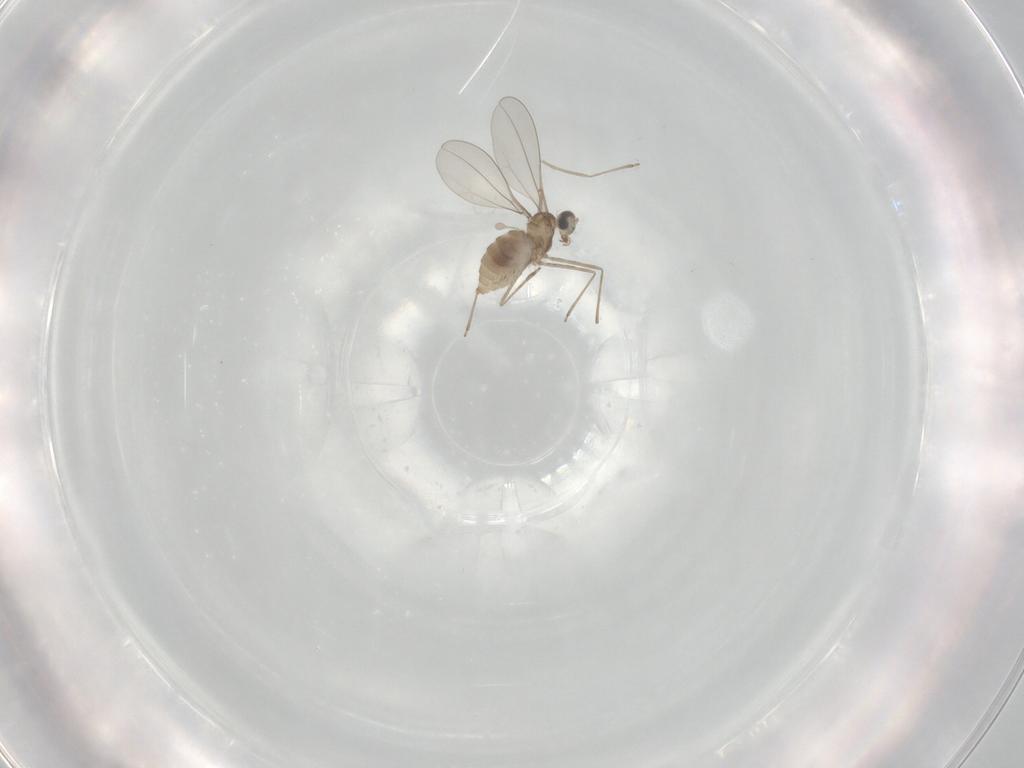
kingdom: Animalia
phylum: Arthropoda
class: Insecta
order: Diptera
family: Cecidomyiidae
